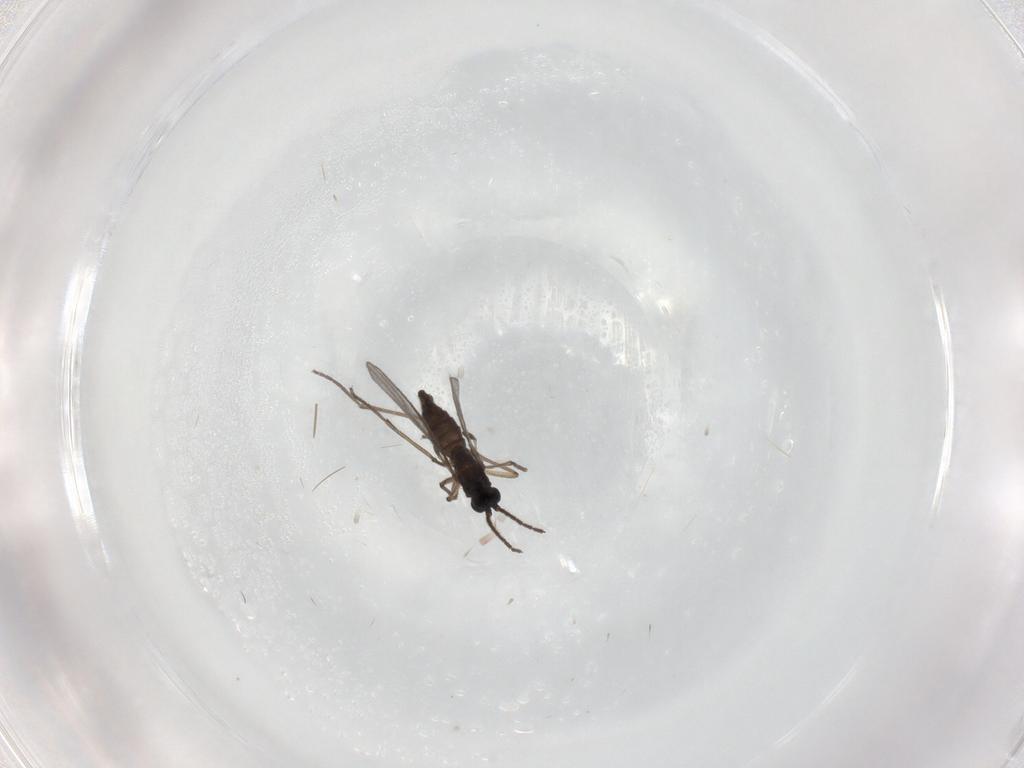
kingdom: Animalia
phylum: Arthropoda
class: Insecta
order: Diptera
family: Sciaridae
